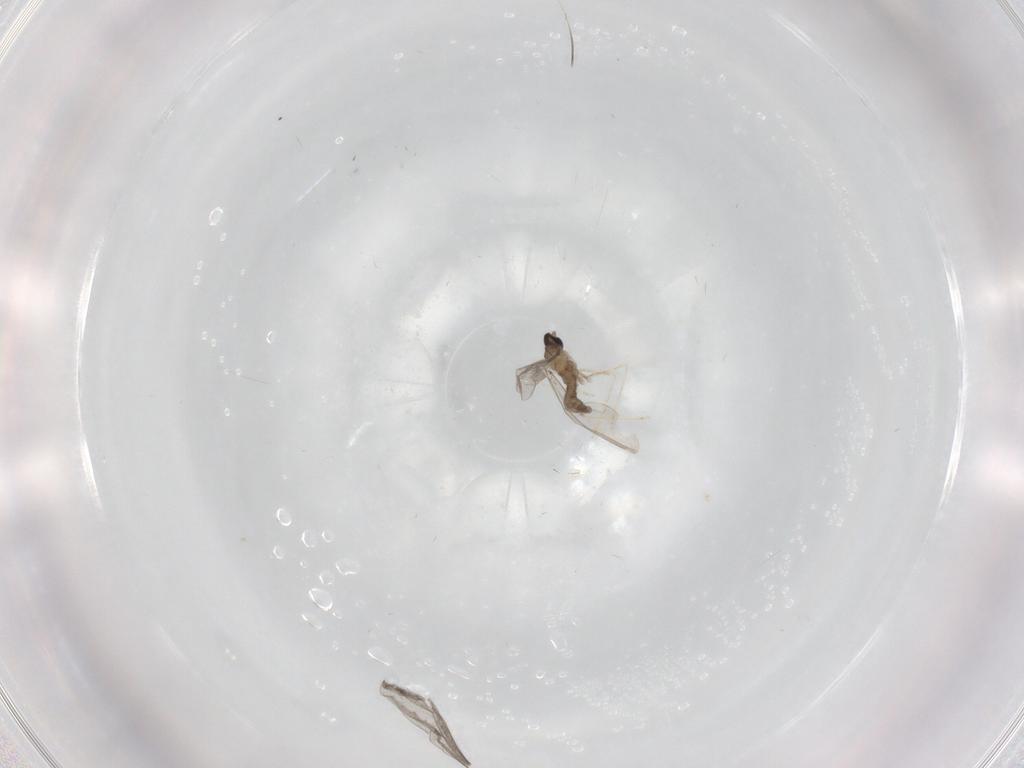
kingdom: Animalia
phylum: Arthropoda
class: Insecta
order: Diptera
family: Cecidomyiidae
